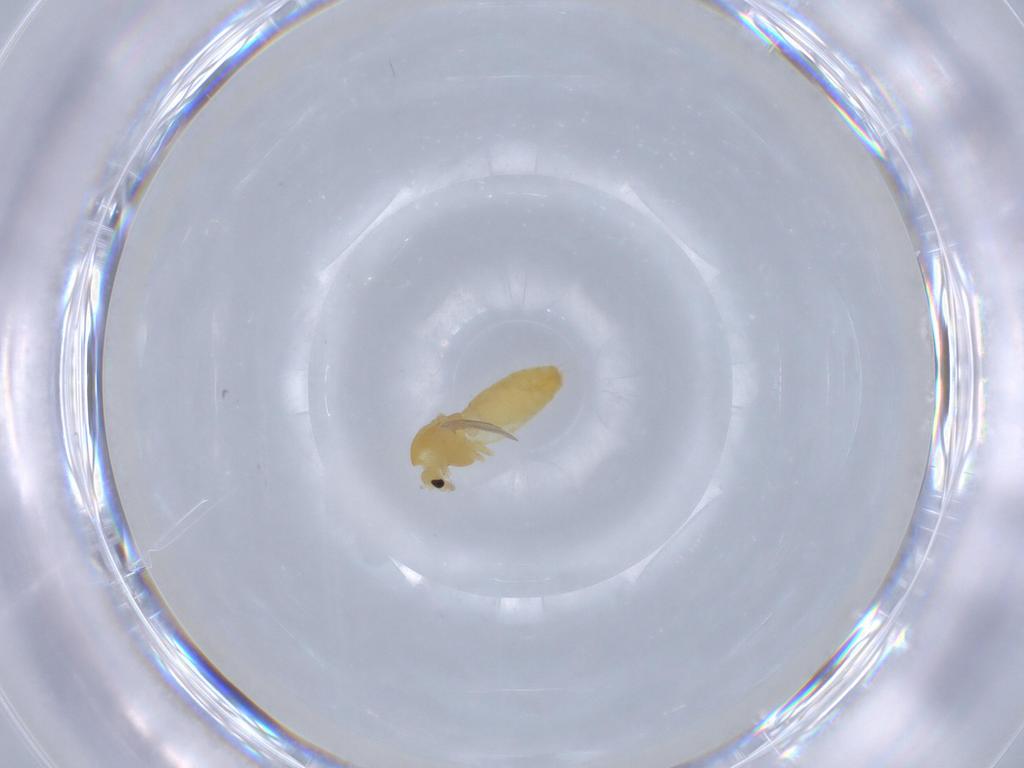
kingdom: Animalia
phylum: Arthropoda
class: Insecta
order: Diptera
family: Chironomidae
